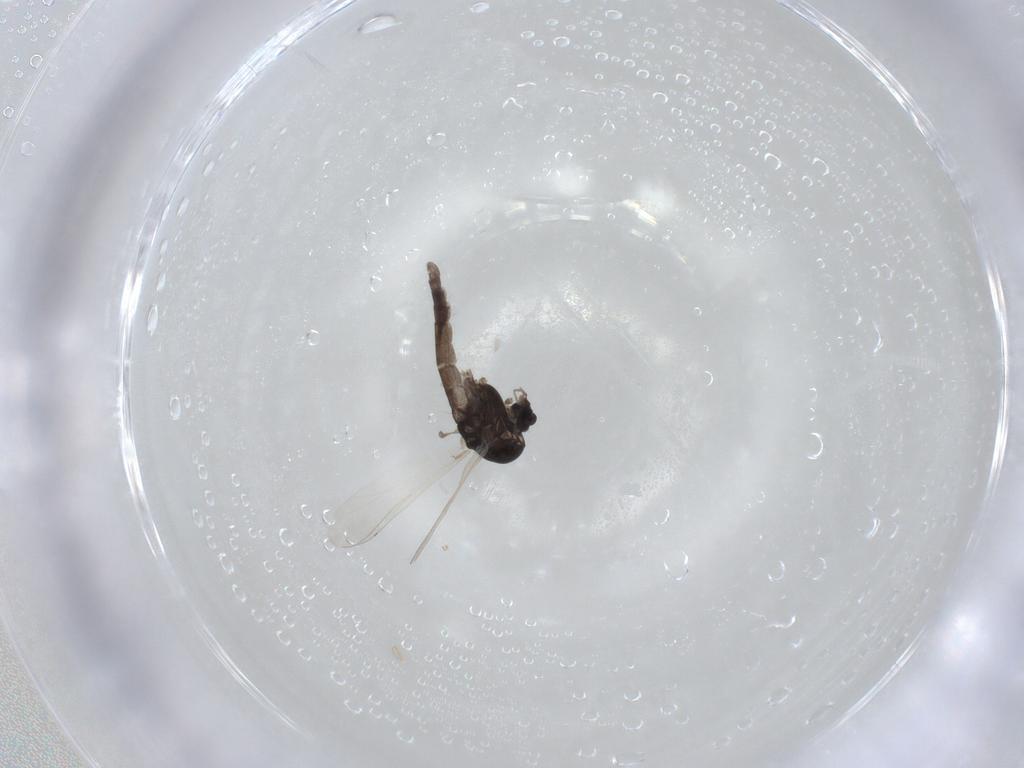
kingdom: Animalia
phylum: Arthropoda
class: Insecta
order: Diptera
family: Chironomidae
